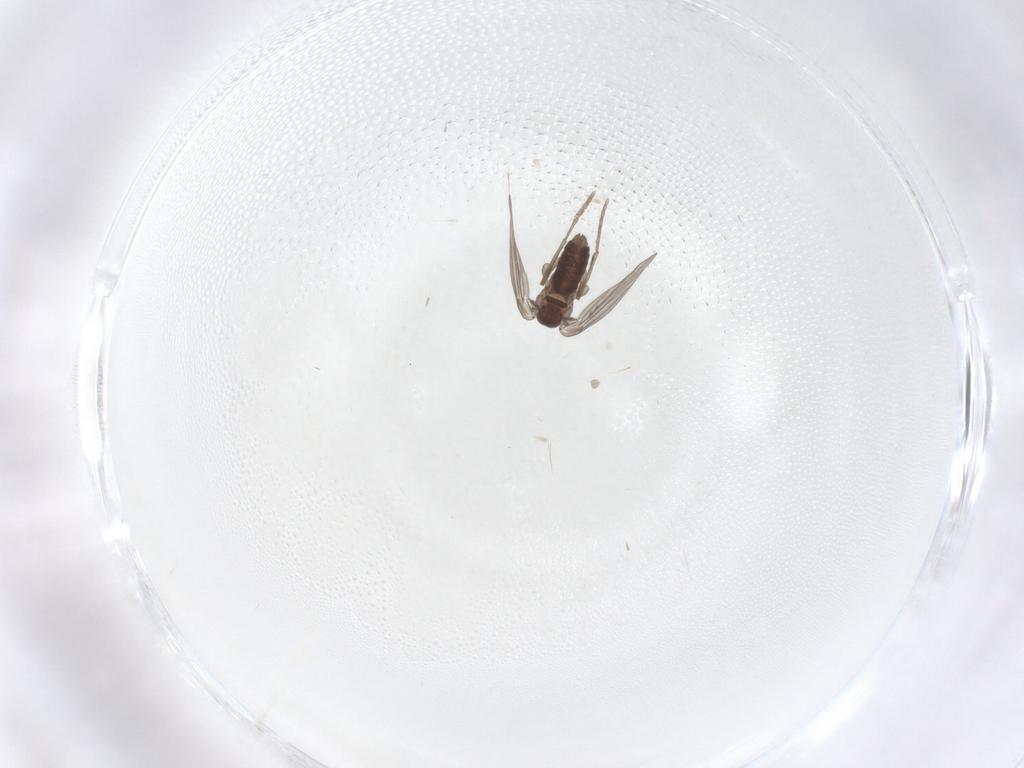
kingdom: Animalia
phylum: Arthropoda
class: Insecta
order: Diptera
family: Psychodidae
